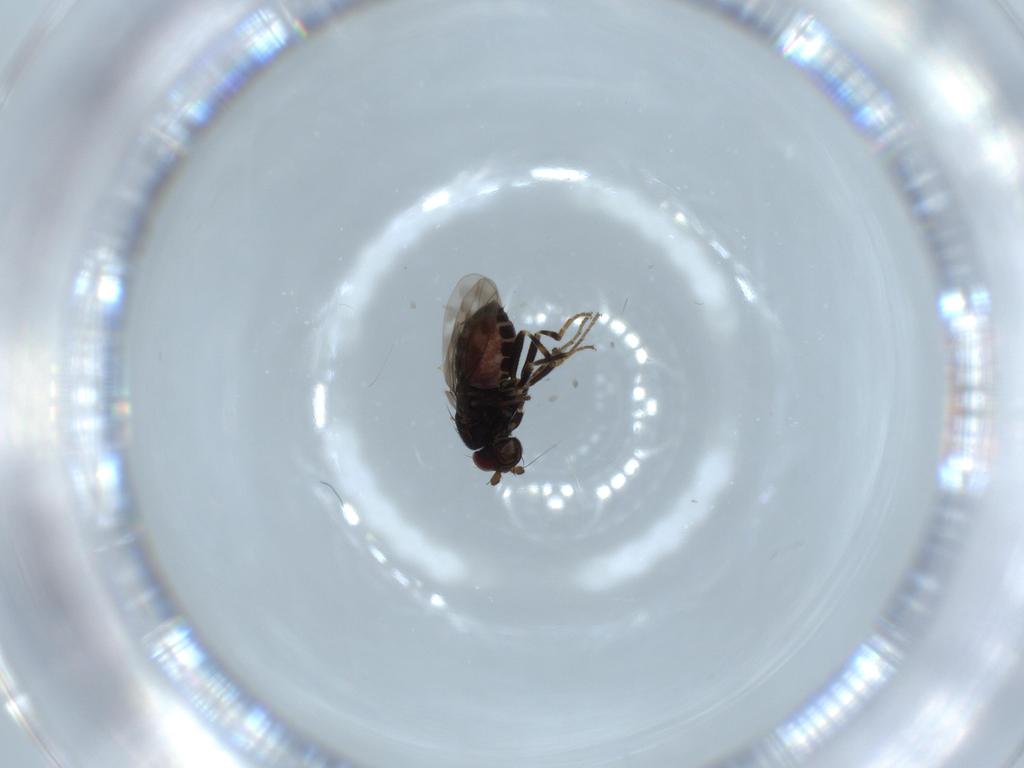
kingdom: Animalia
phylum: Arthropoda
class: Insecta
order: Diptera
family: Sphaeroceridae
